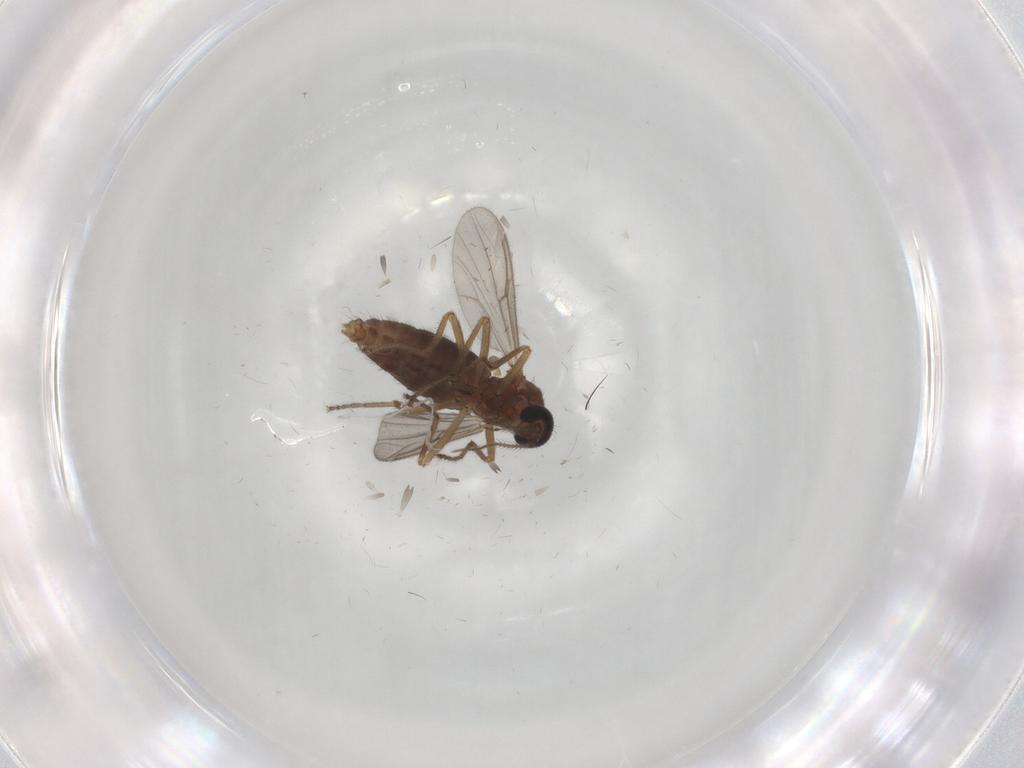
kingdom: Animalia
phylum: Arthropoda
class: Insecta
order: Diptera
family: Ceratopogonidae
